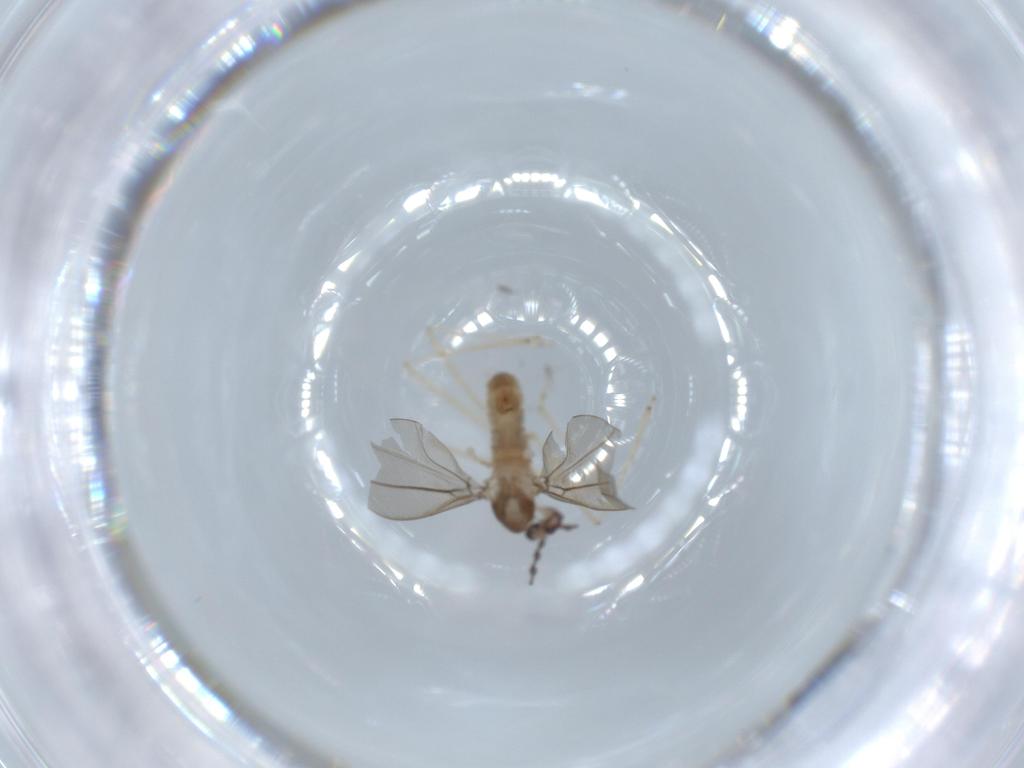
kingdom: Animalia
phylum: Arthropoda
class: Insecta
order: Diptera
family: Cecidomyiidae
